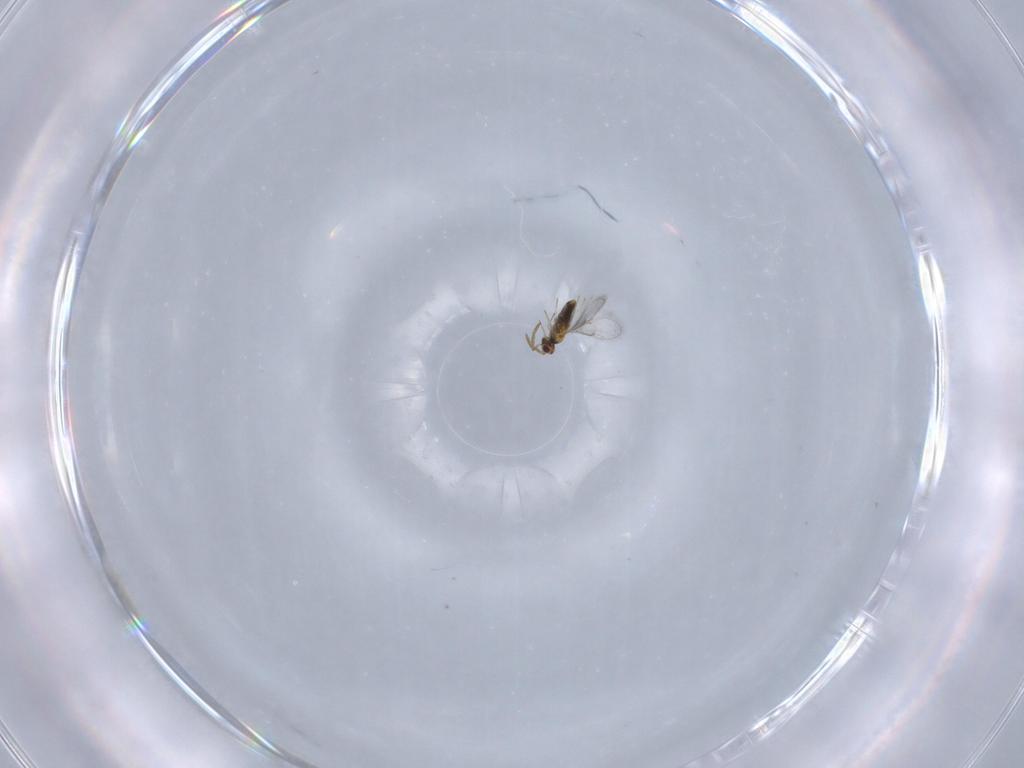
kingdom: Animalia
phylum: Arthropoda
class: Insecta
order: Hymenoptera
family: Aphelinidae
